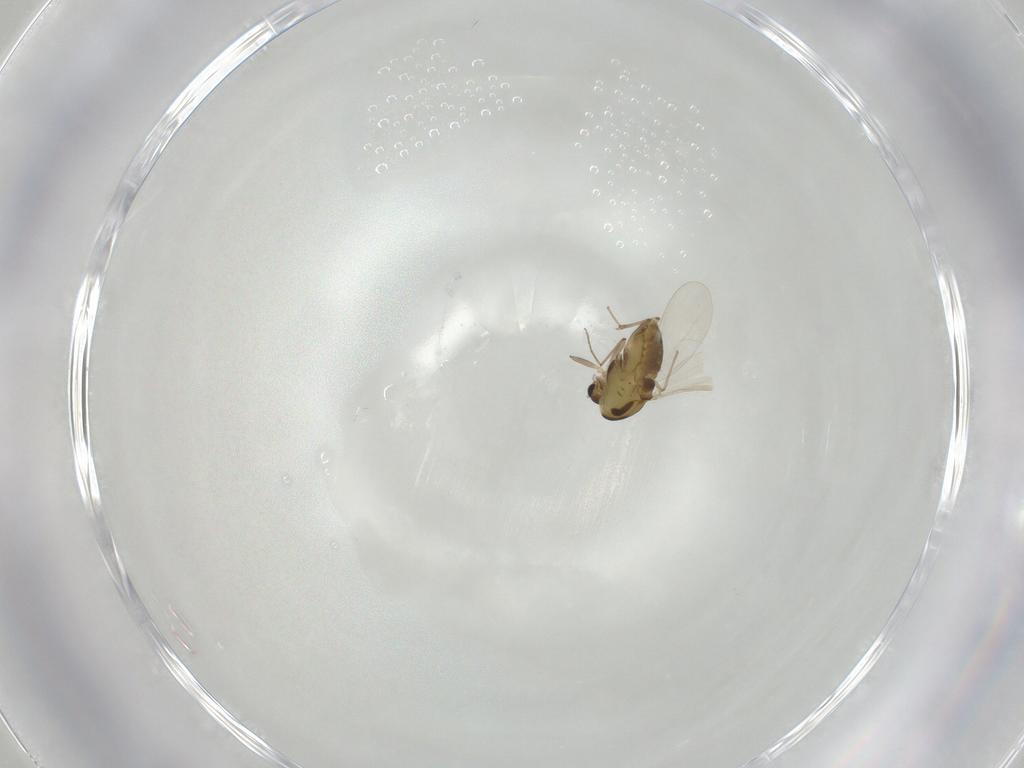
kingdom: Animalia
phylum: Arthropoda
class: Insecta
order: Diptera
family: Chironomidae
